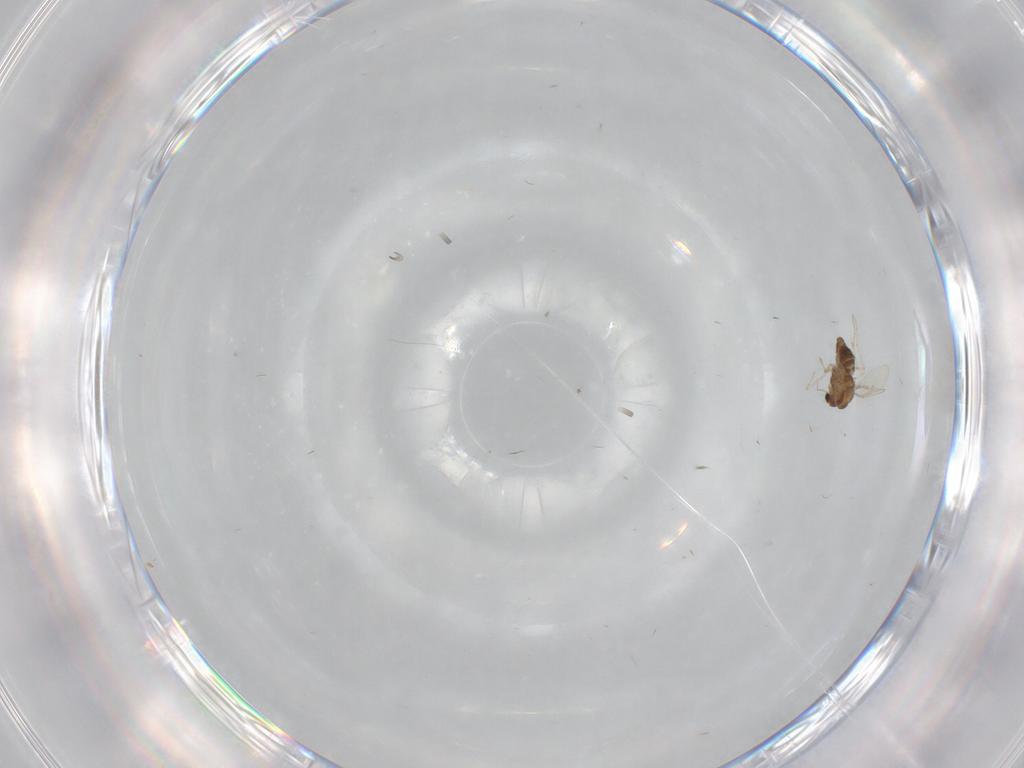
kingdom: Animalia
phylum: Arthropoda
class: Insecta
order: Diptera
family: Chironomidae
